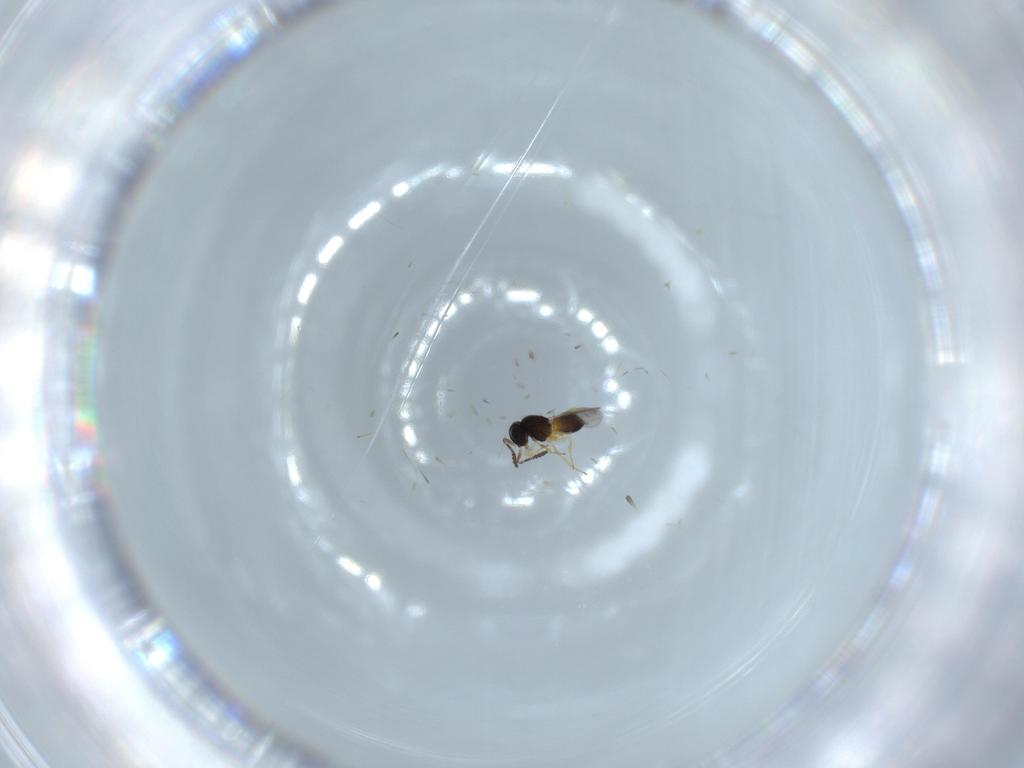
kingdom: Animalia
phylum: Arthropoda
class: Insecta
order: Hymenoptera
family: Scelionidae
